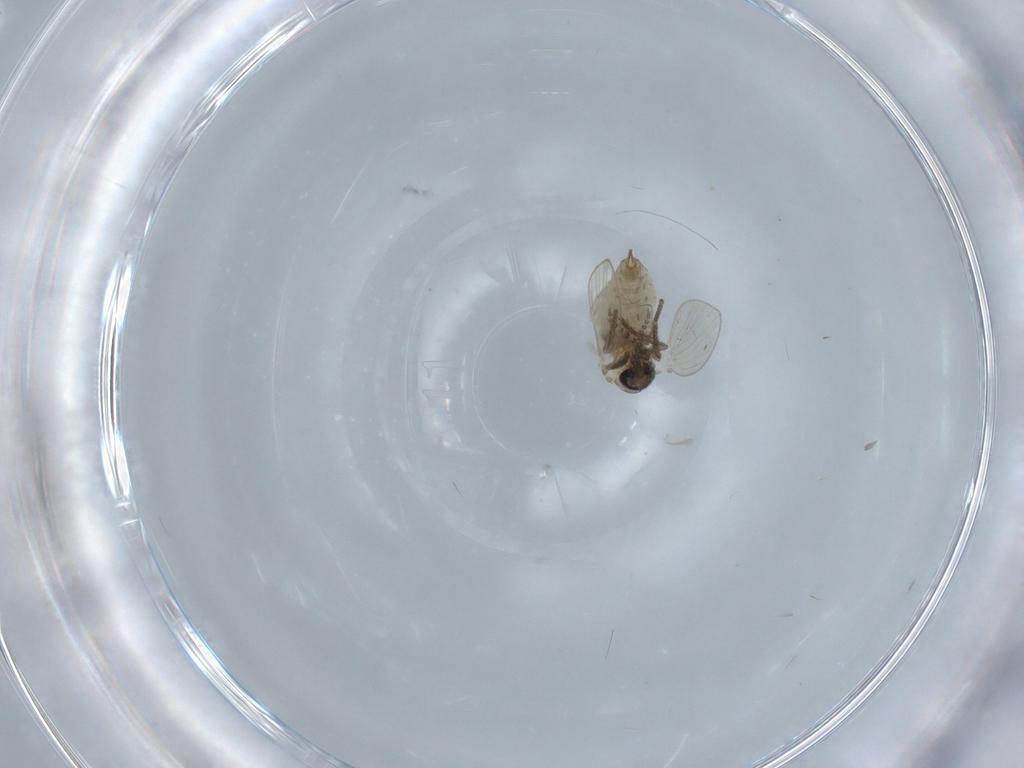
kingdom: Animalia
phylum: Arthropoda
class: Insecta
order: Diptera
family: Psychodidae
